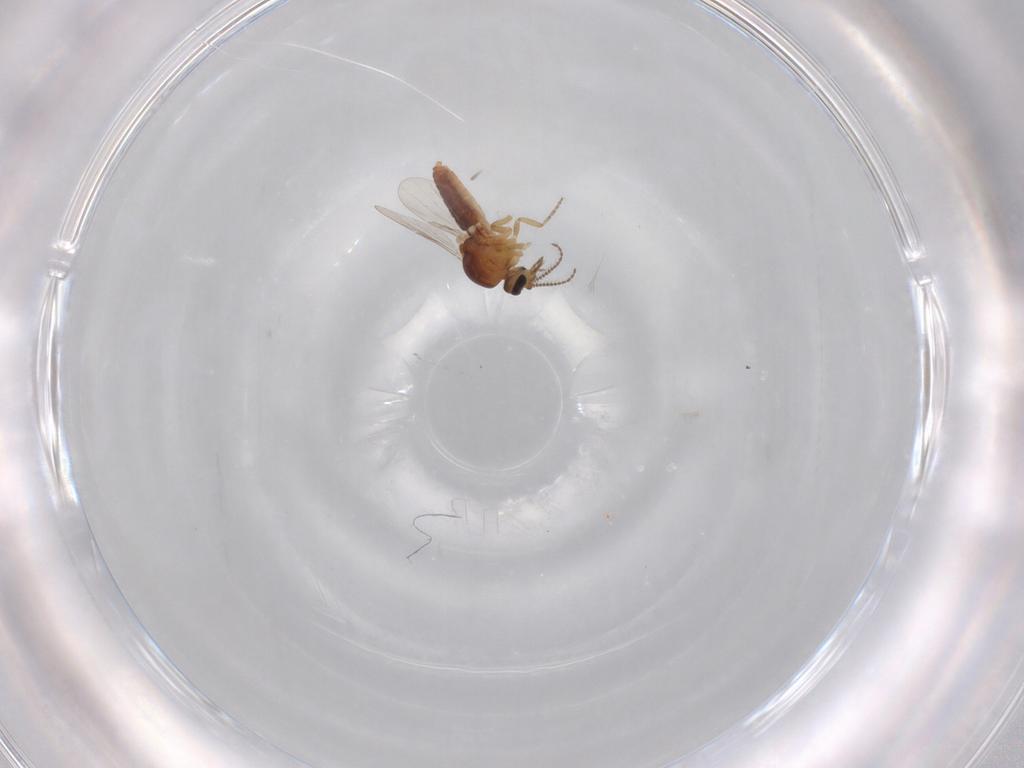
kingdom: Animalia
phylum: Arthropoda
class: Insecta
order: Diptera
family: Ceratopogonidae
